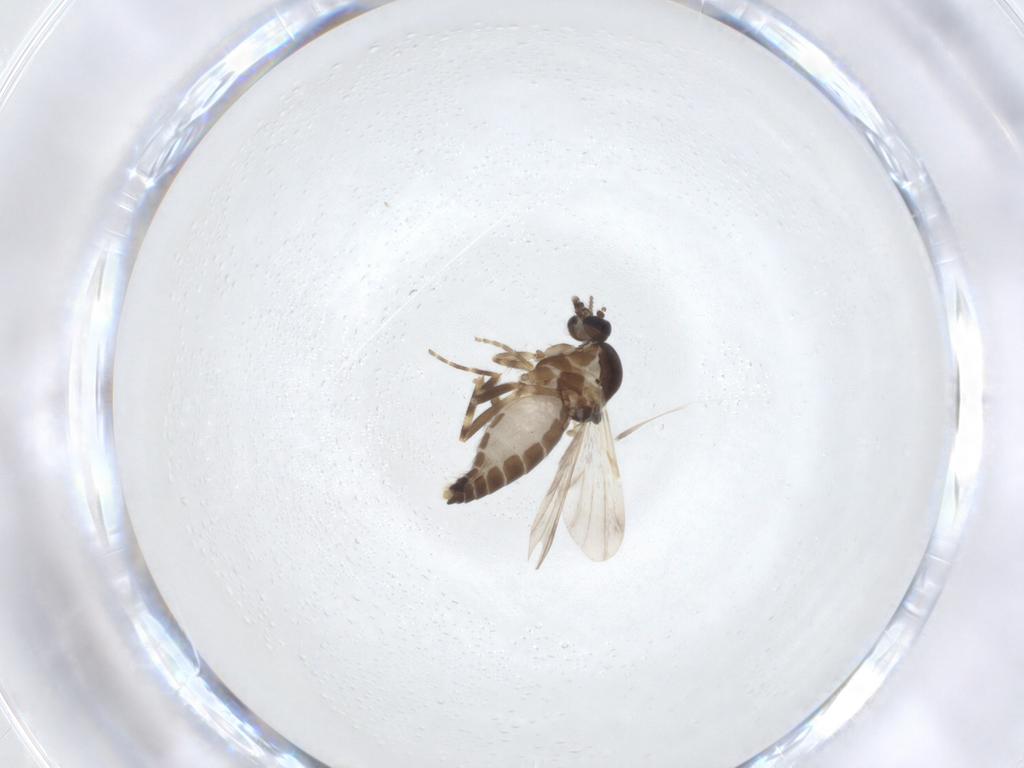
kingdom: Animalia
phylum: Arthropoda
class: Insecta
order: Diptera
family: Ceratopogonidae
